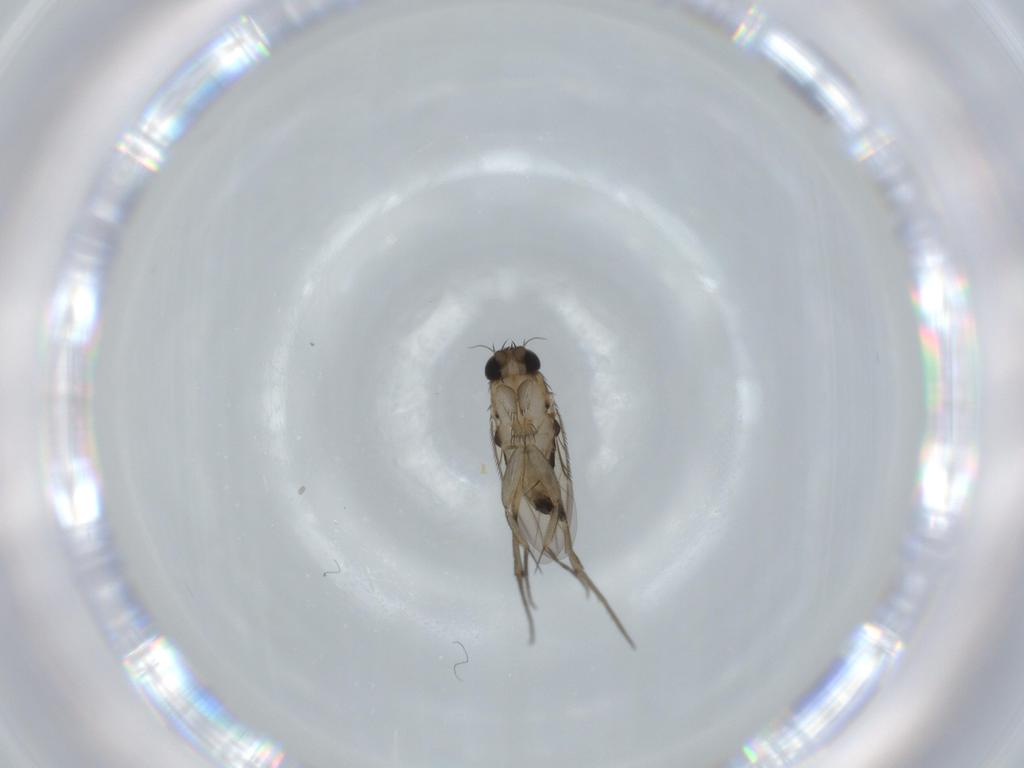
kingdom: Animalia
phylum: Arthropoda
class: Insecta
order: Diptera
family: Phoridae
